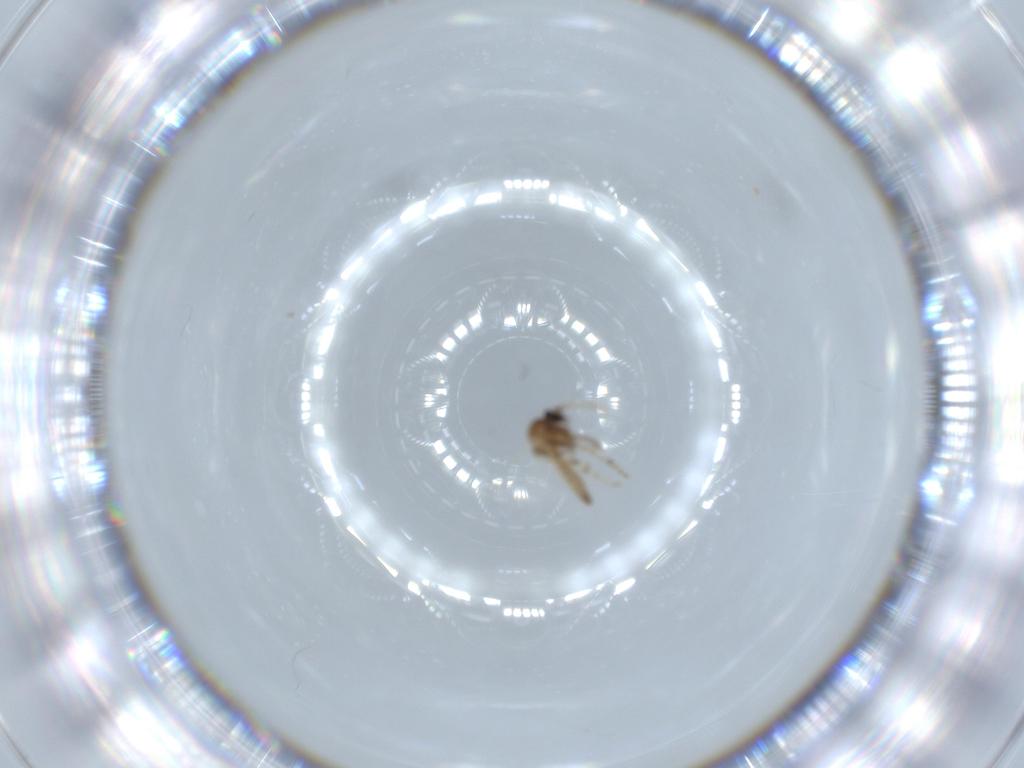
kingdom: Animalia
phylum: Arthropoda
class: Insecta
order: Diptera
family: Ceratopogonidae
